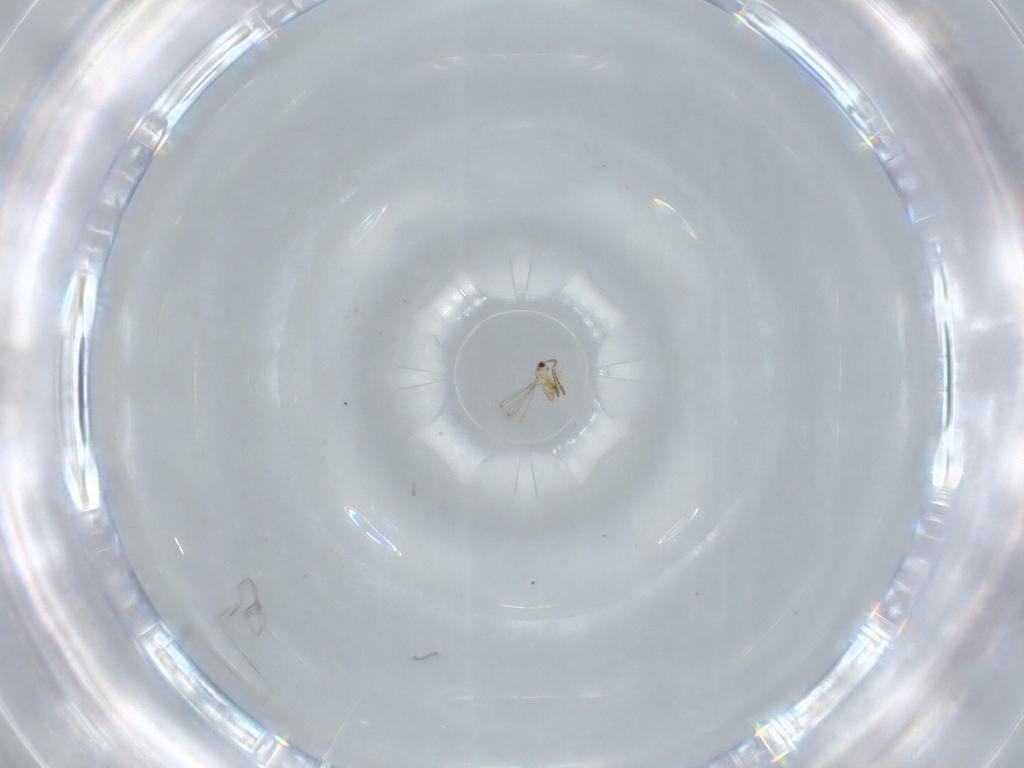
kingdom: Animalia
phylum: Arthropoda
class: Insecta
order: Hymenoptera
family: Mymaridae
